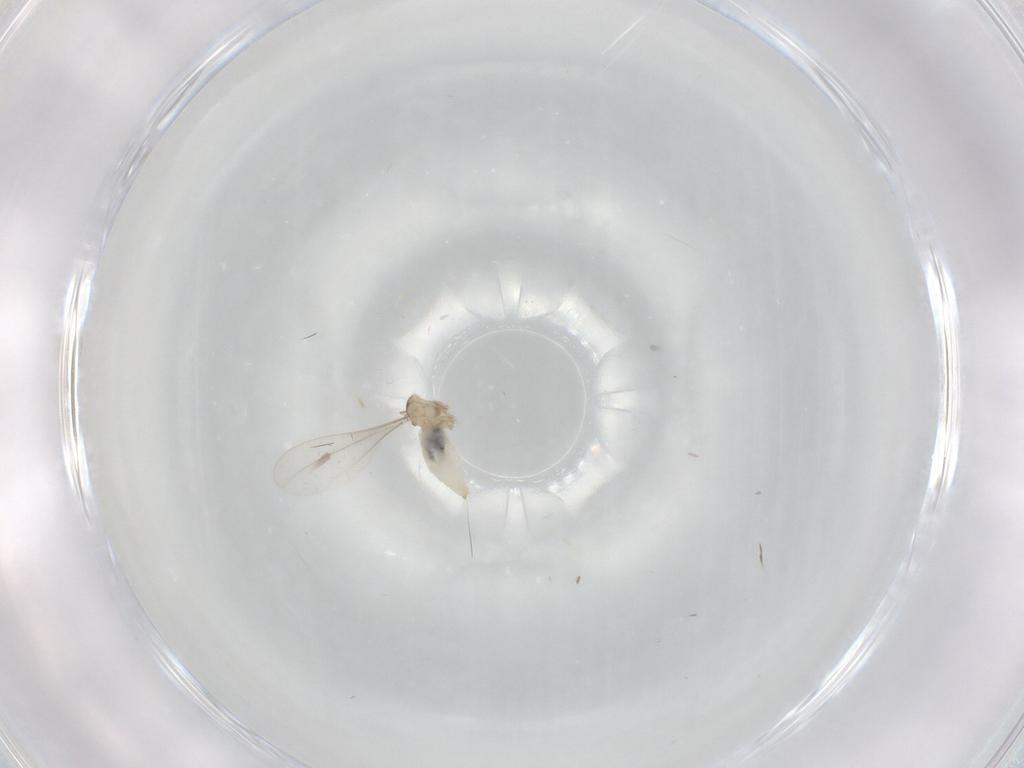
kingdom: Animalia
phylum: Arthropoda
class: Insecta
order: Diptera
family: Cecidomyiidae
